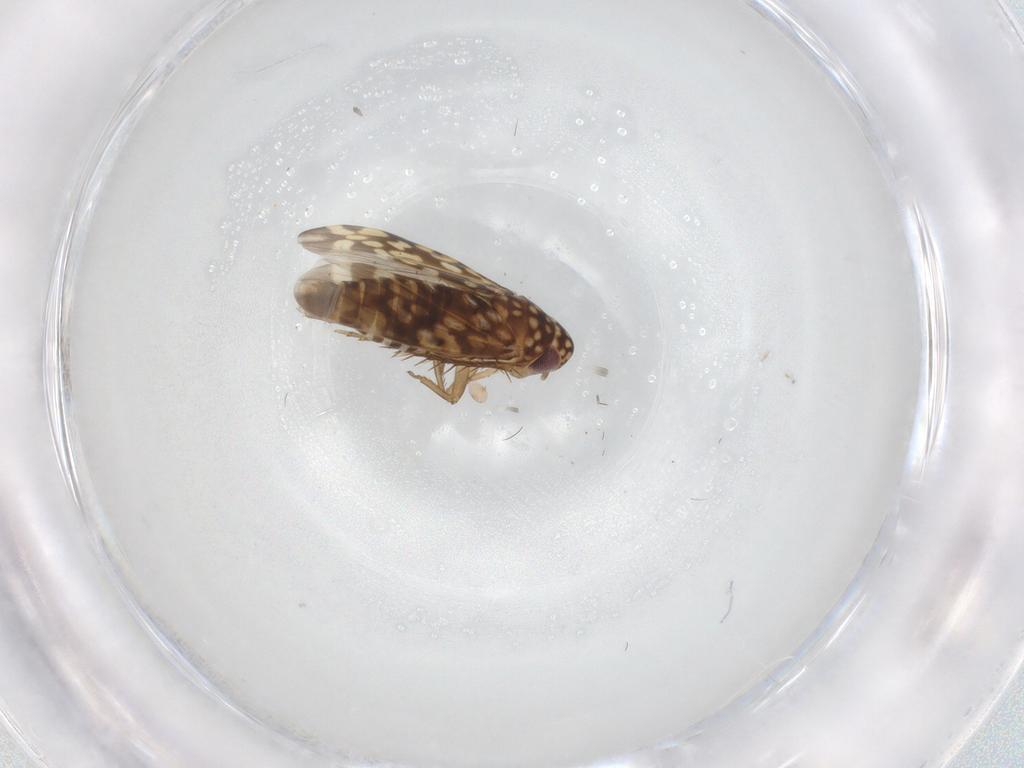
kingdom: Animalia
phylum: Arthropoda
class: Insecta
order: Hemiptera
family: Cicadellidae
